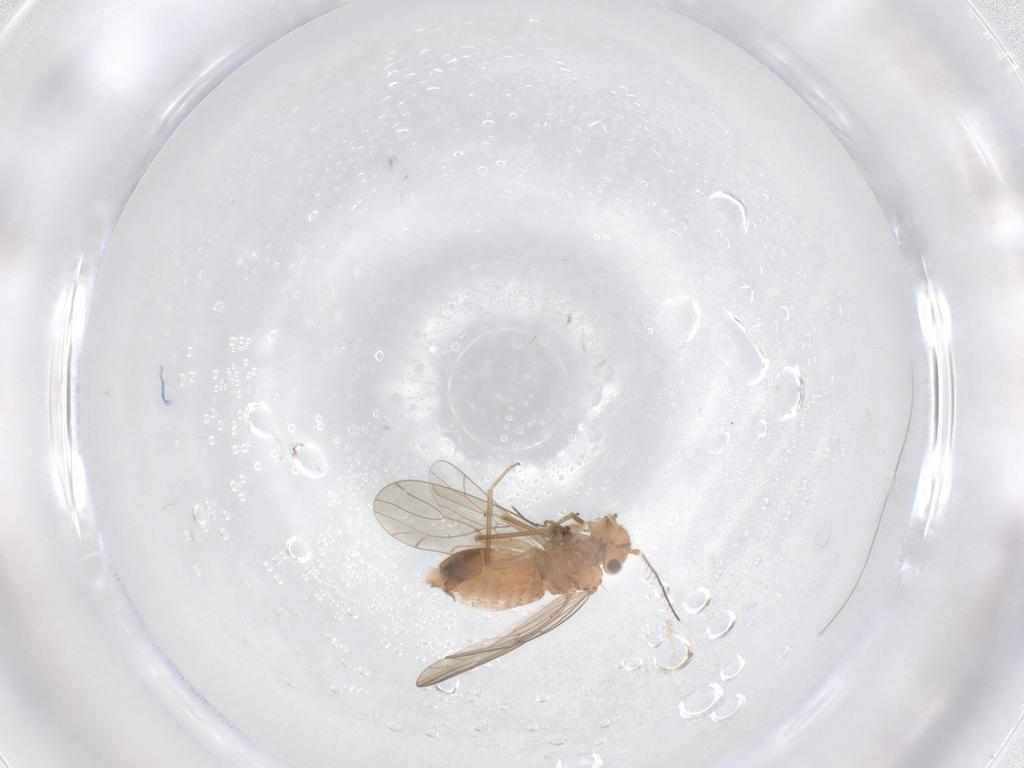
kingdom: Animalia
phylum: Arthropoda
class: Insecta
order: Psocodea
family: Ectopsocidae
